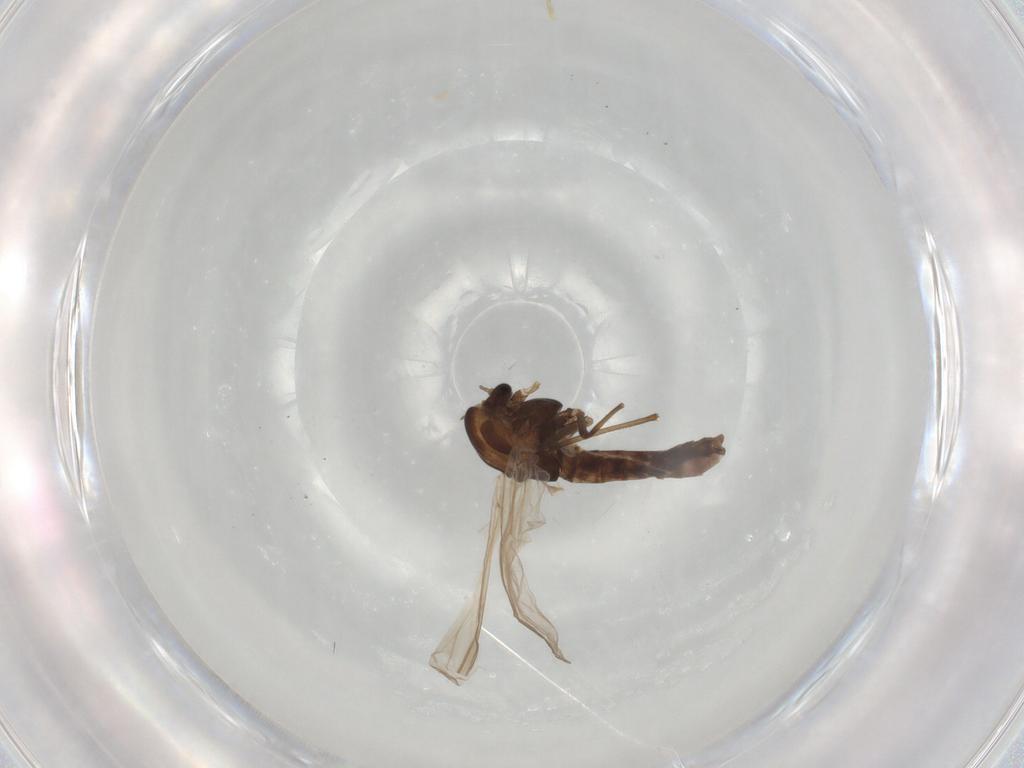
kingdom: Animalia
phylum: Arthropoda
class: Insecta
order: Diptera
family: Chironomidae
